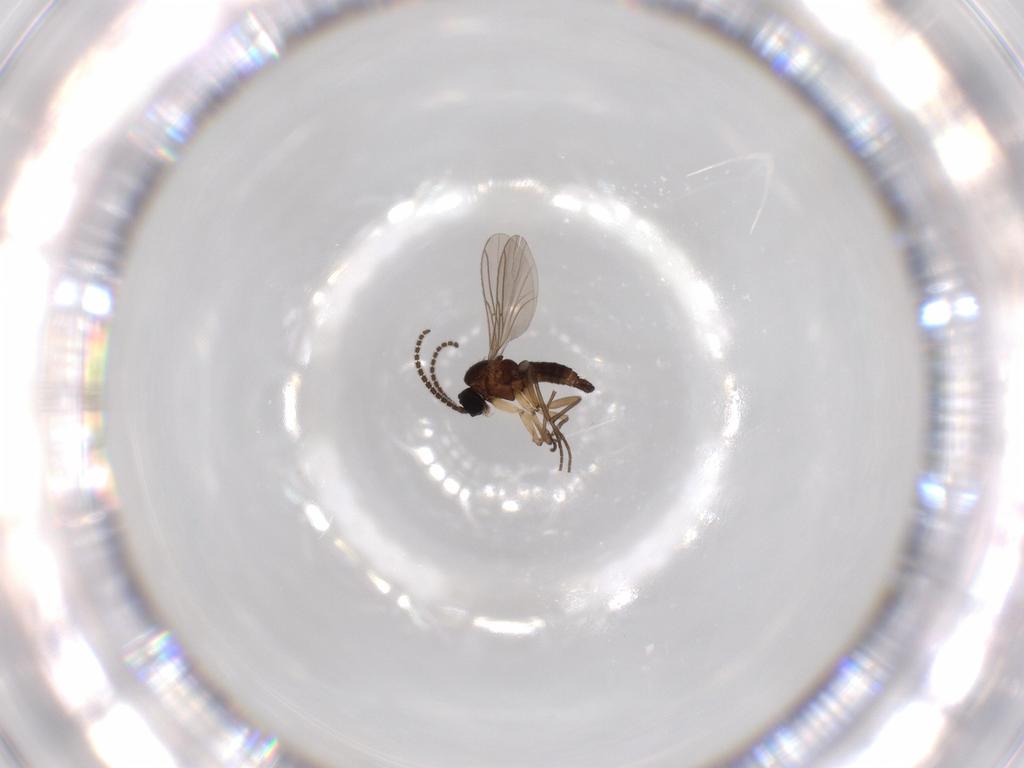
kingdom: Animalia
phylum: Arthropoda
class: Insecta
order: Diptera
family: Sciaridae
